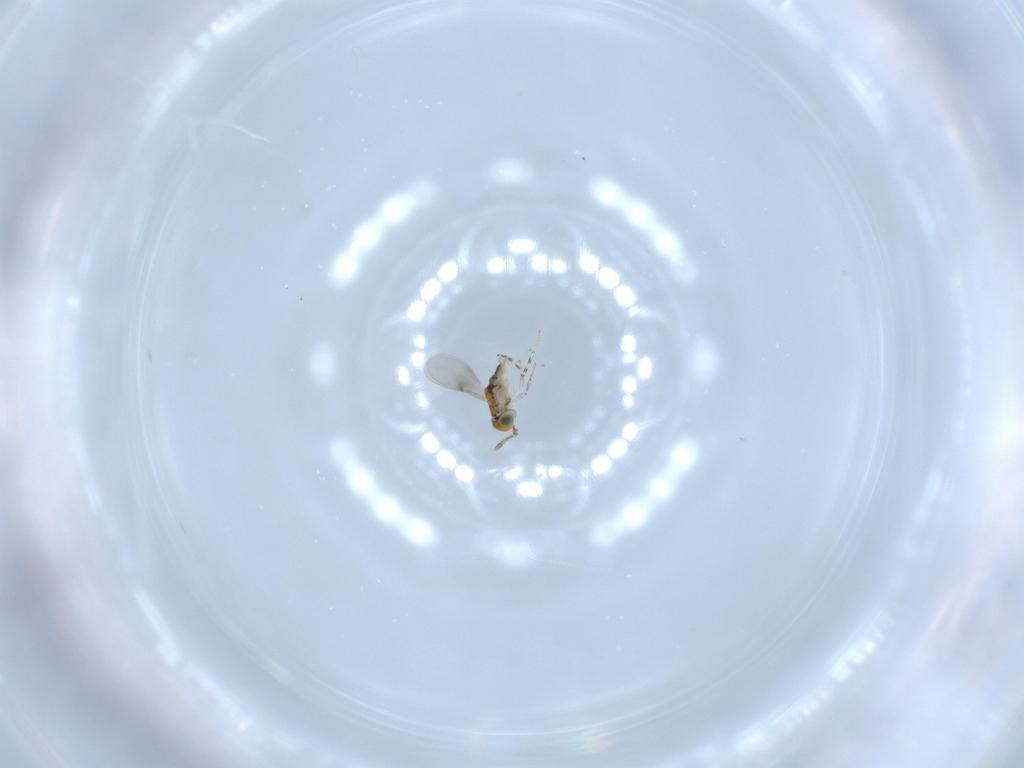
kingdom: Animalia
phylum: Arthropoda
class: Insecta
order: Hymenoptera
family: Encyrtidae
